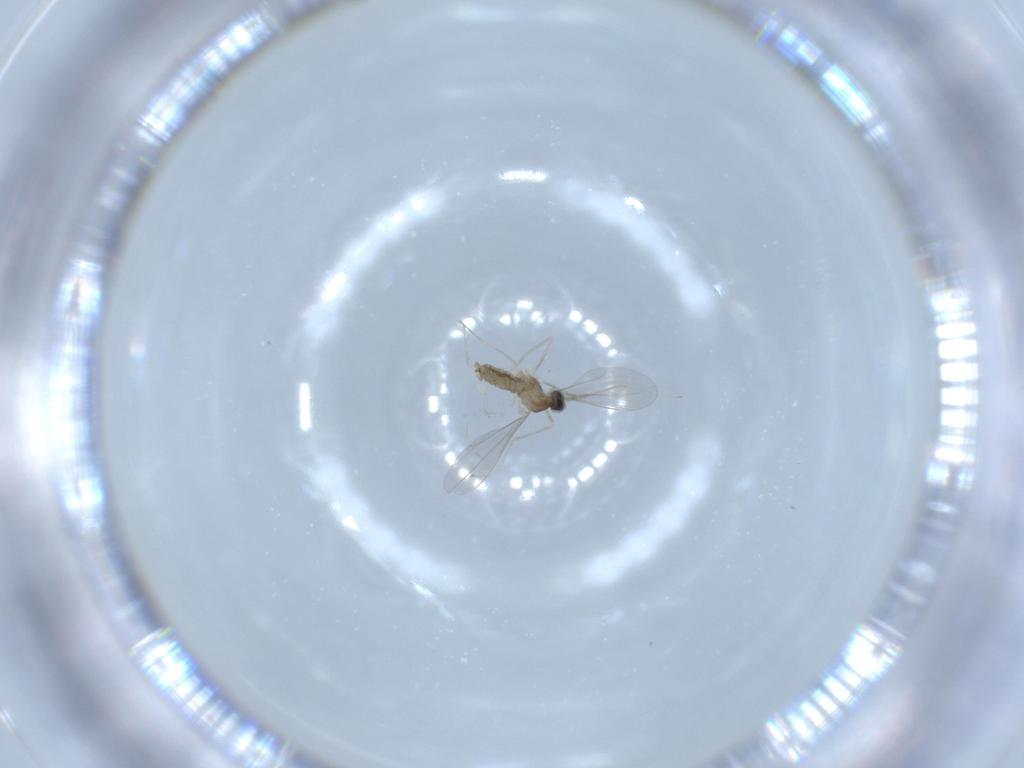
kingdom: Animalia
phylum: Arthropoda
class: Insecta
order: Diptera
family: Cecidomyiidae
